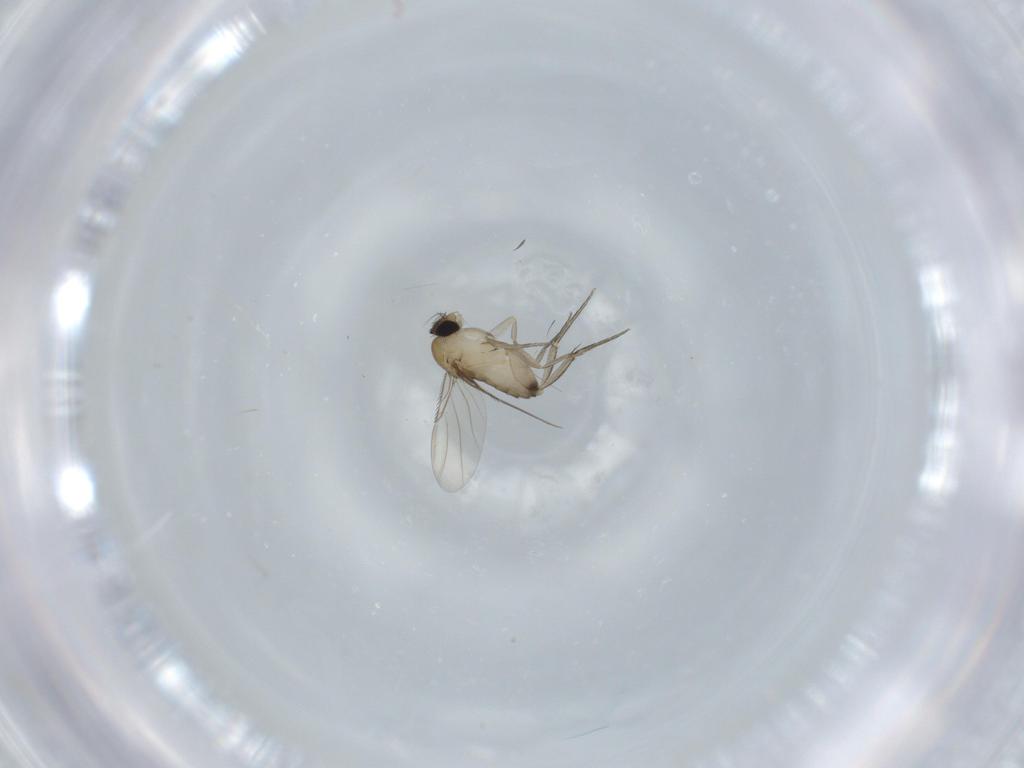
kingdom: Animalia
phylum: Arthropoda
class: Insecta
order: Diptera
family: Phoridae
